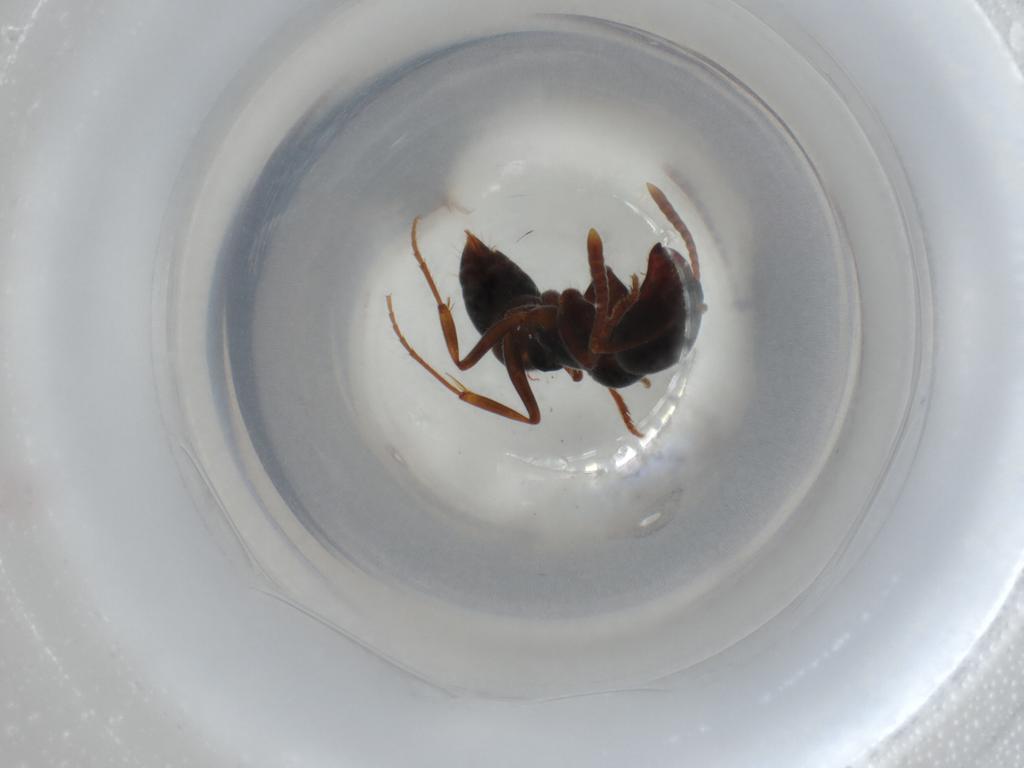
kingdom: Animalia
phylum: Arthropoda
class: Insecta
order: Hymenoptera
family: Formicidae
